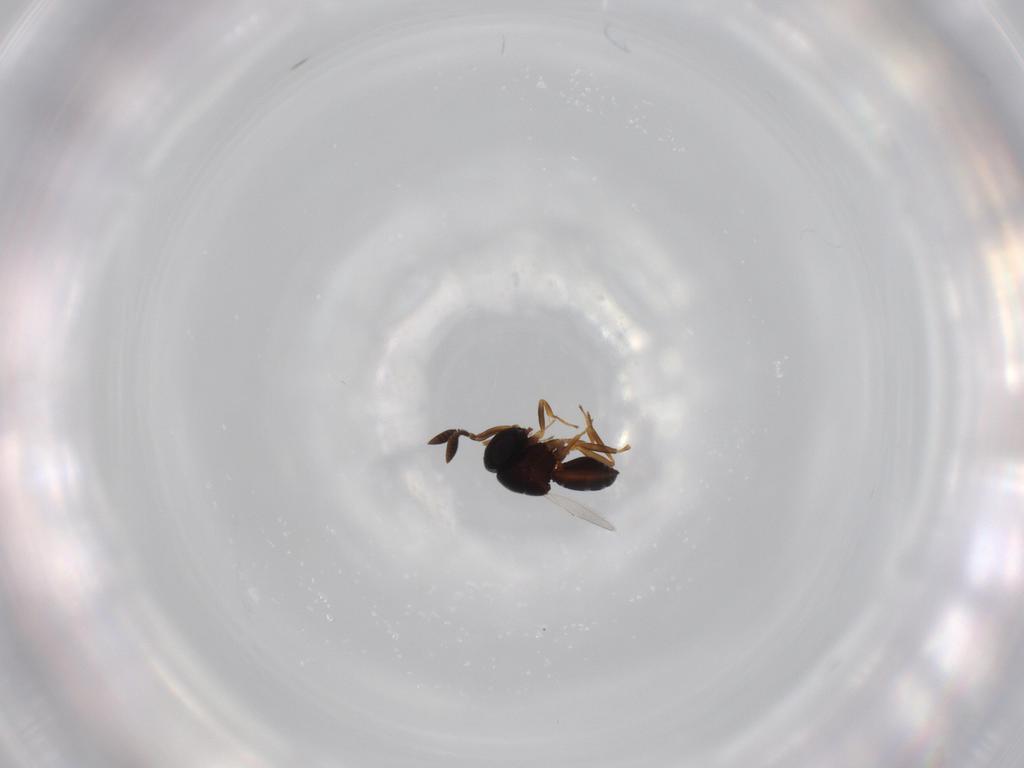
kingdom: Animalia
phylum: Arthropoda
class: Insecta
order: Coleoptera
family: Curculionidae
